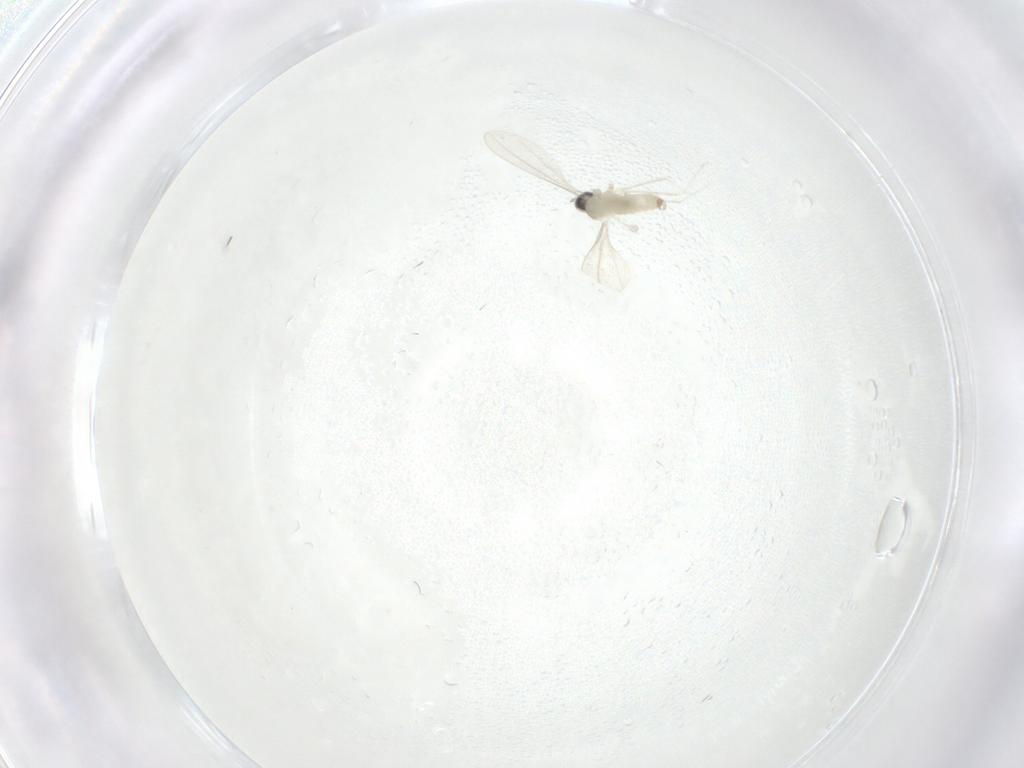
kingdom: Animalia
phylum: Arthropoda
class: Insecta
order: Diptera
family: Cecidomyiidae
